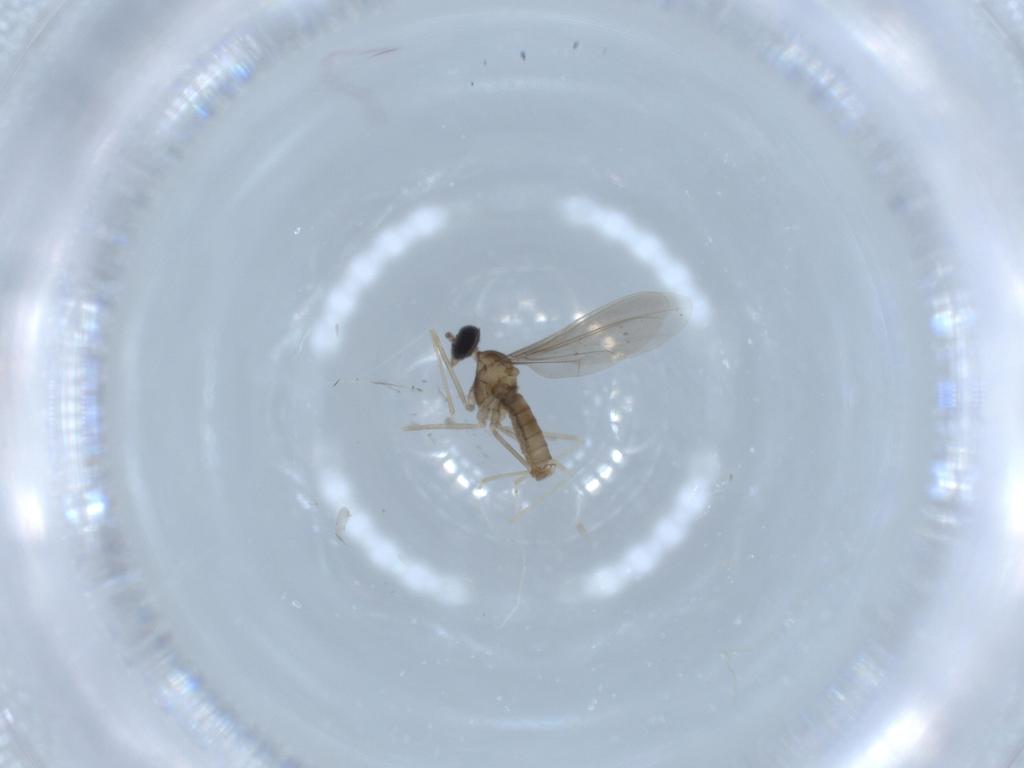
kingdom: Animalia
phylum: Arthropoda
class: Insecta
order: Diptera
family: Cecidomyiidae
